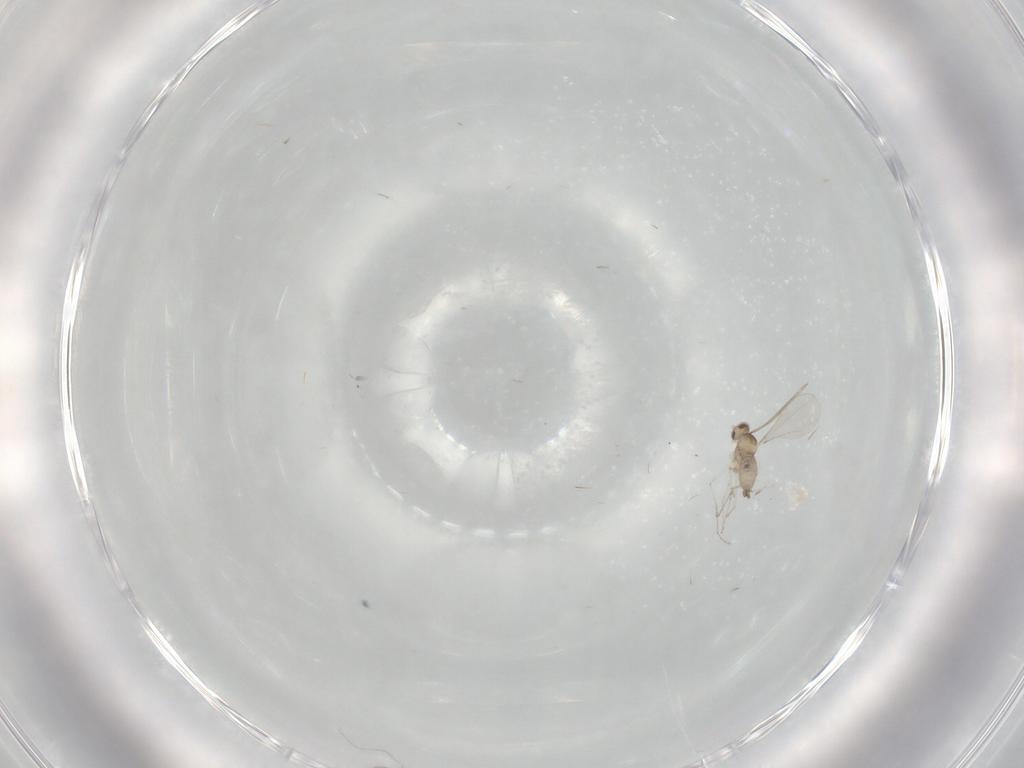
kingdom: Animalia
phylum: Arthropoda
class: Insecta
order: Diptera
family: Cecidomyiidae
